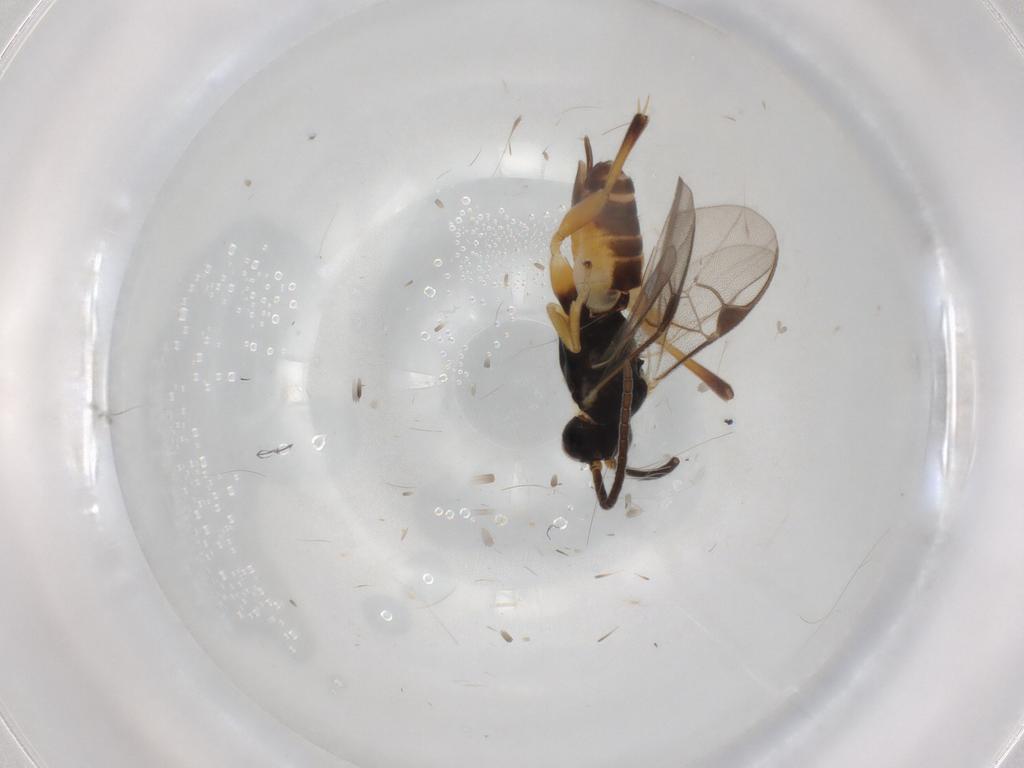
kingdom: Animalia
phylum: Arthropoda
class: Insecta
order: Hymenoptera
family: Braconidae
